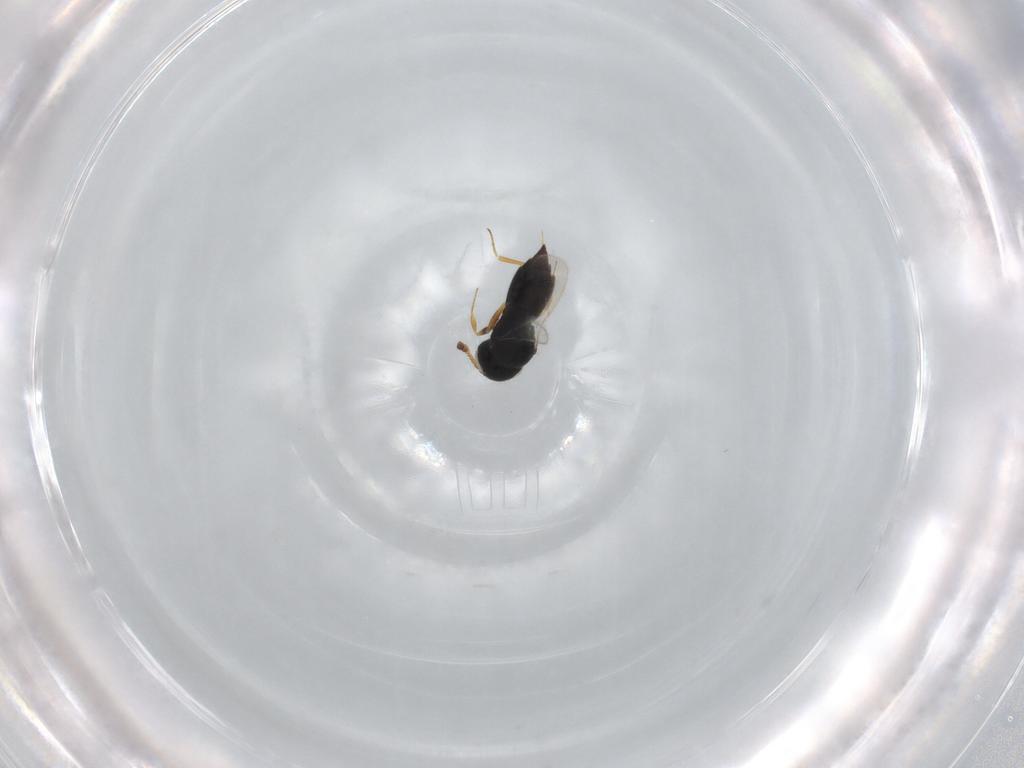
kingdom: Animalia
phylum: Arthropoda
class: Insecta
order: Hymenoptera
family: Scelionidae
